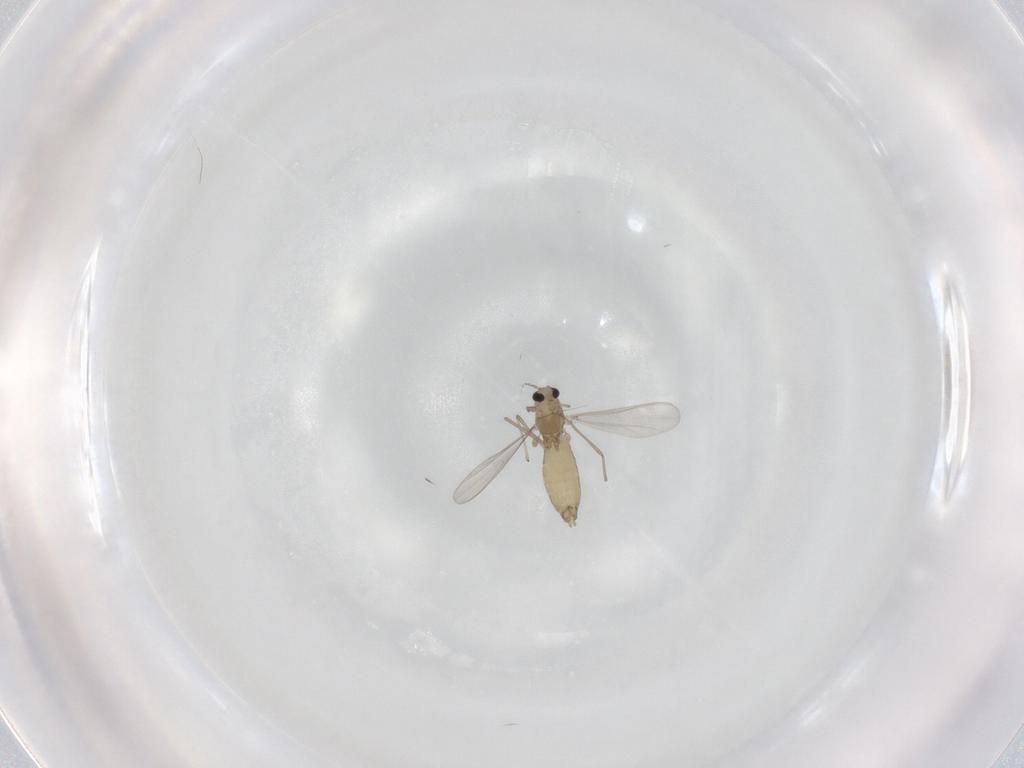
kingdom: Animalia
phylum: Arthropoda
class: Insecta
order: Diptera
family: Chironomidae
